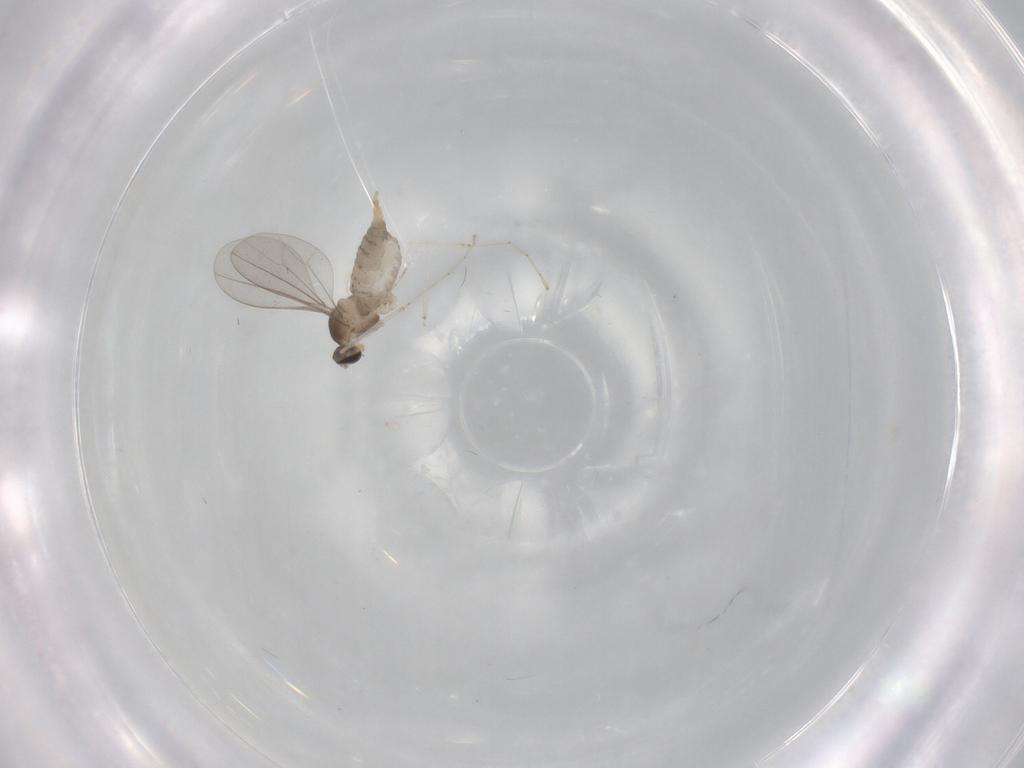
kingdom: Animalia
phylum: Arthropoda
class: Insecta
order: Diptera
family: Cecidomyiidae
